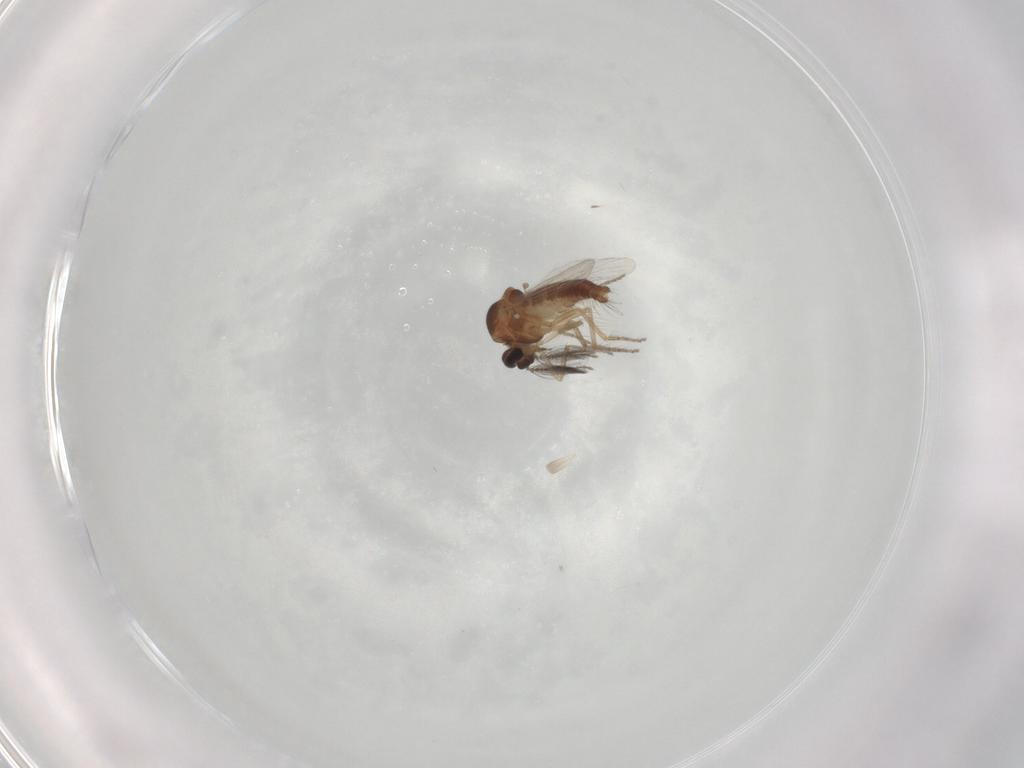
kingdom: Animalia
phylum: Arthropoda
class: Insecta
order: Diptera
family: Ceratopogonidae
